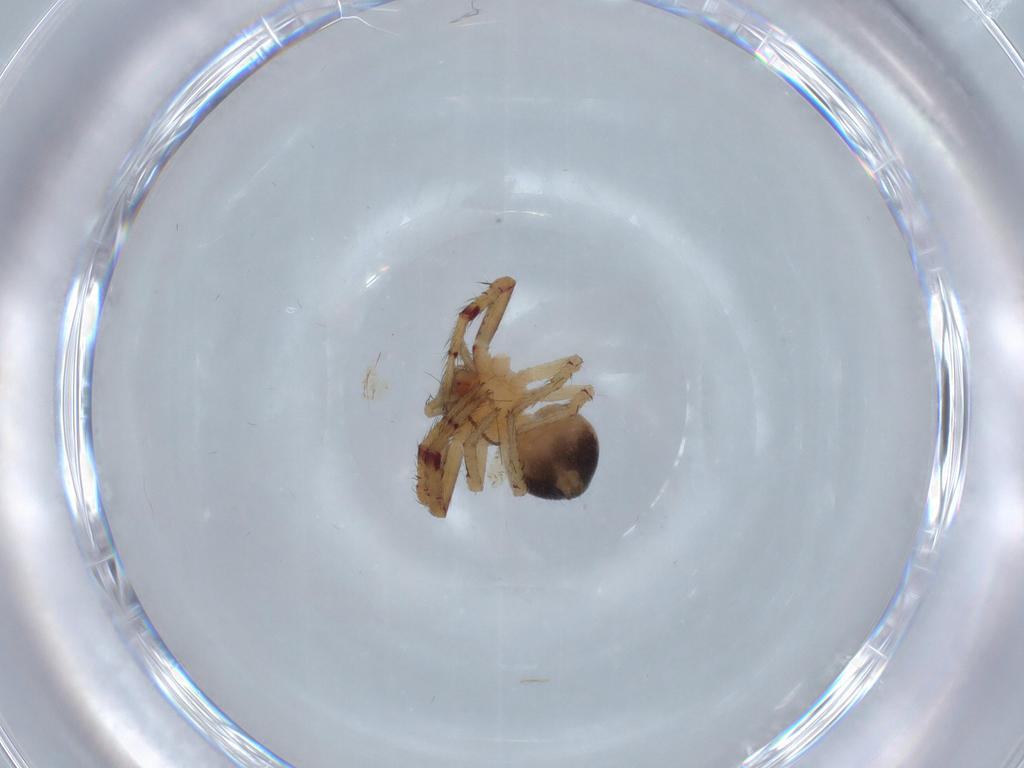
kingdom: Animalia
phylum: Arthropoda
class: Arachnida
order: Araneae
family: Thomisidae
